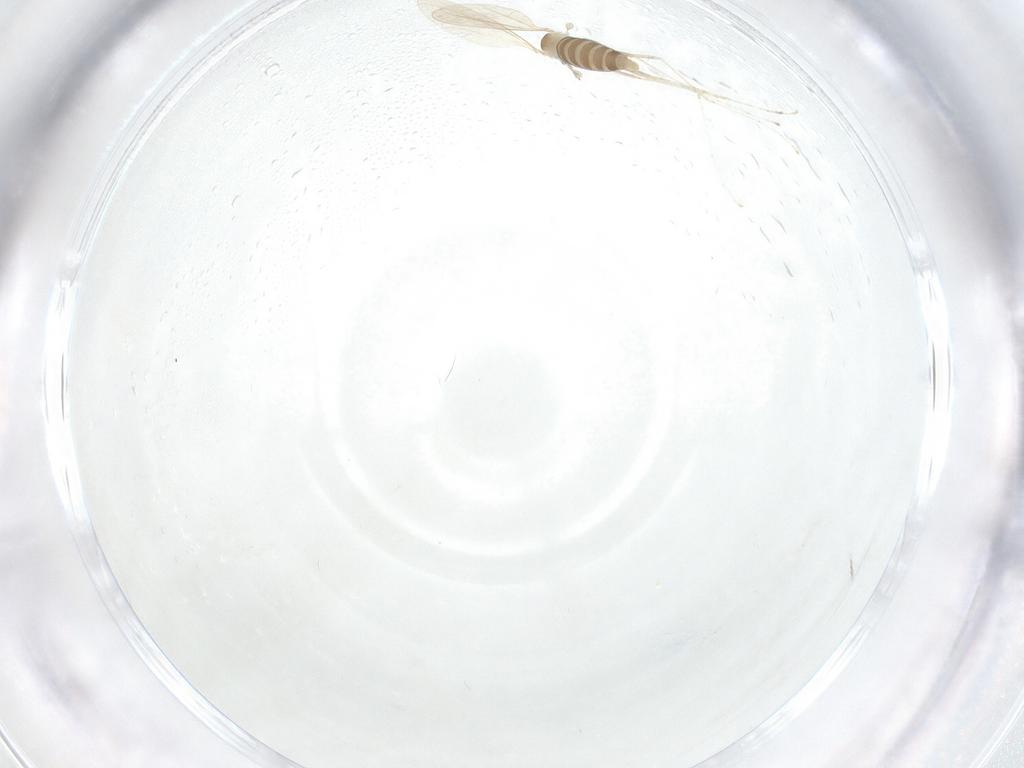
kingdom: Animalia
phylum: Arthropoda
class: Insecta
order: Diptera
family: Cecidomyiidae
